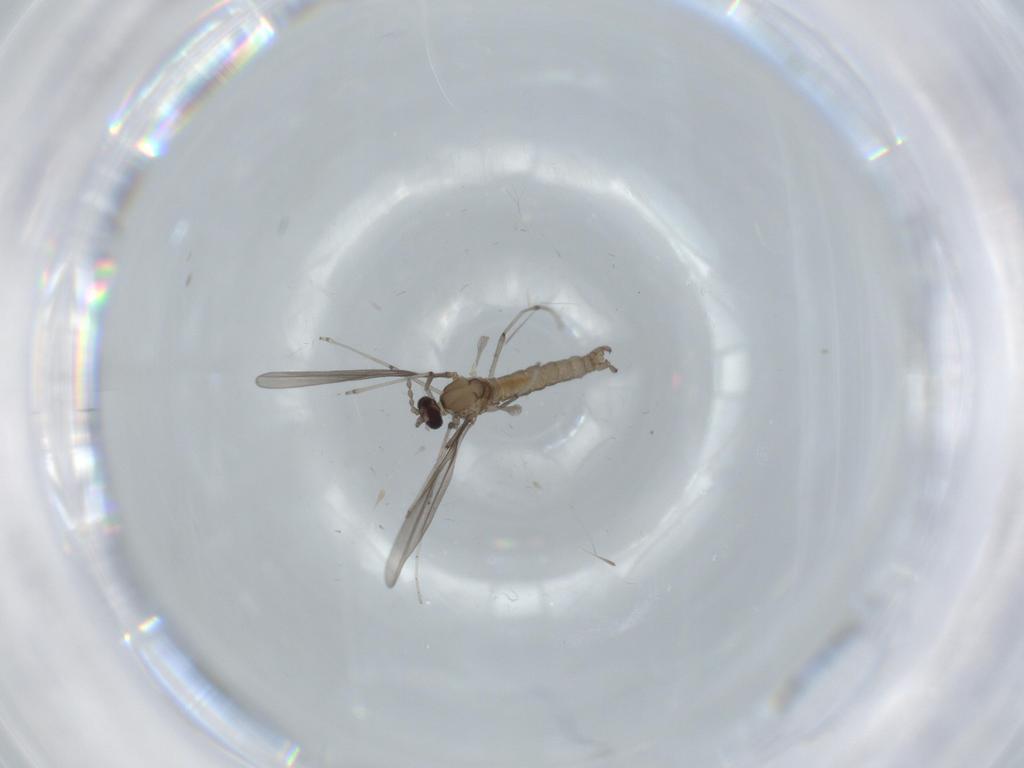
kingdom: Animalia
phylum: Arthropoda
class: Insecta
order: Diptera
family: Cecidomyiidae
